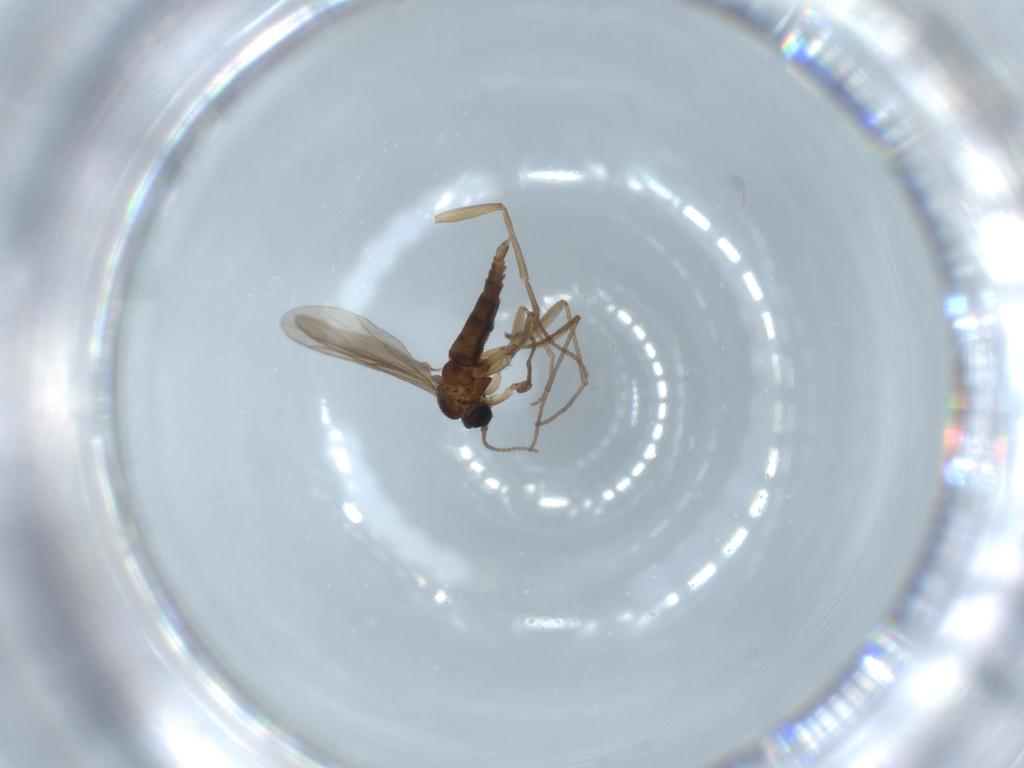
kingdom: Animalia
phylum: Arthropoda
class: Insecta
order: Diptera
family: Sciaridae
